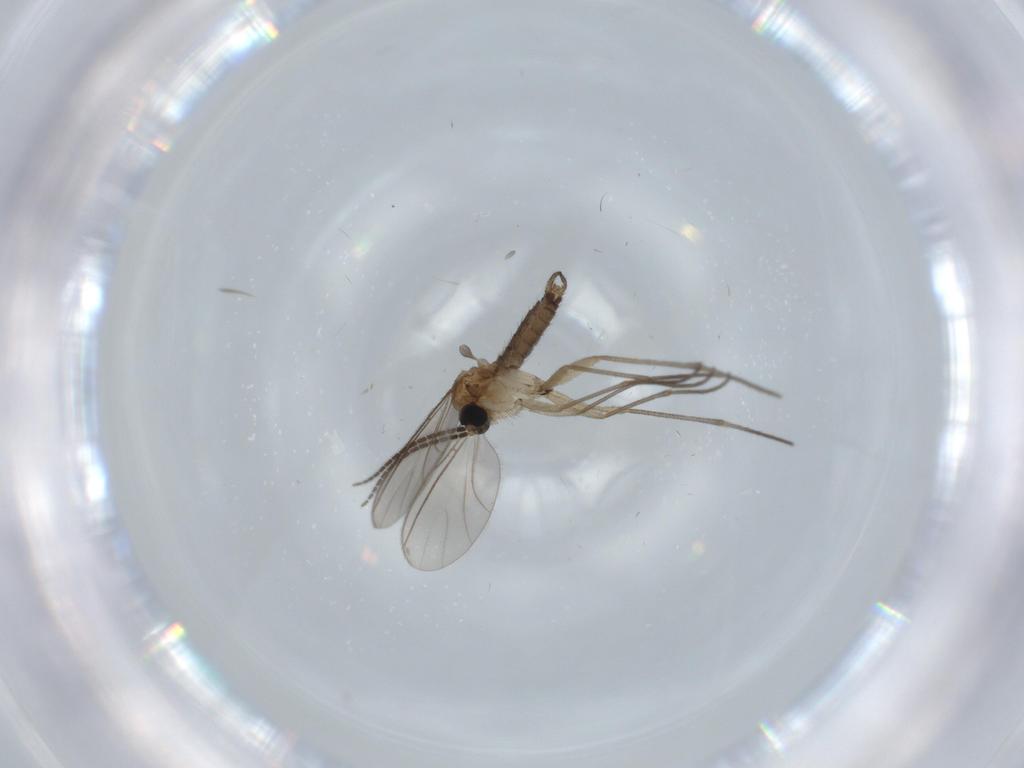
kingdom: Animalia
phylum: Arthropoda
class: Insecta
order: Diptera
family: Sciaridae
